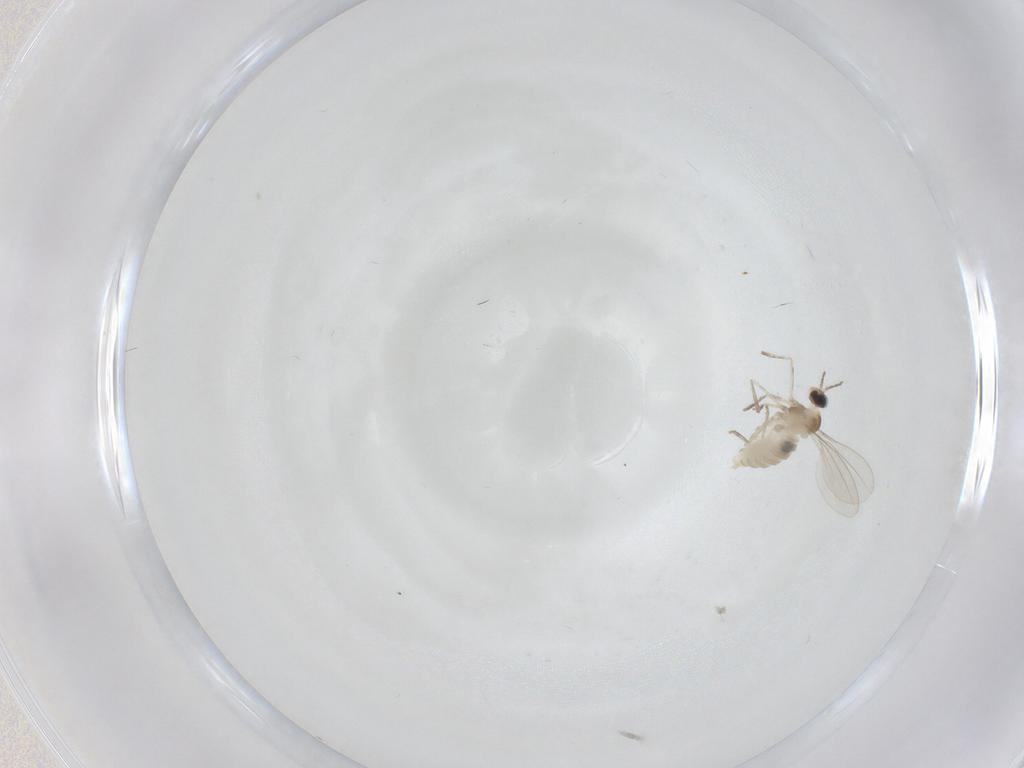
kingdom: Animalia
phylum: Arthropoda
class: Insecta
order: Diptera
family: Cecidomyiidae
